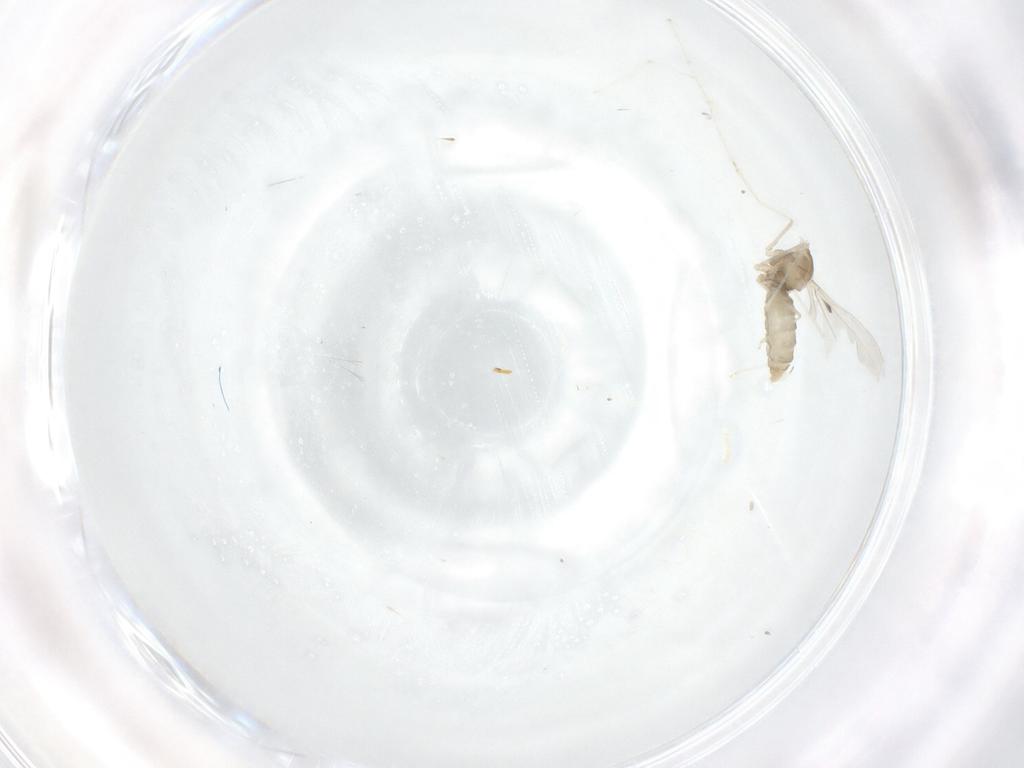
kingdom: Animalia
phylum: Arthropoda
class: Insecta
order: Diptera
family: Cecidomyiidae
